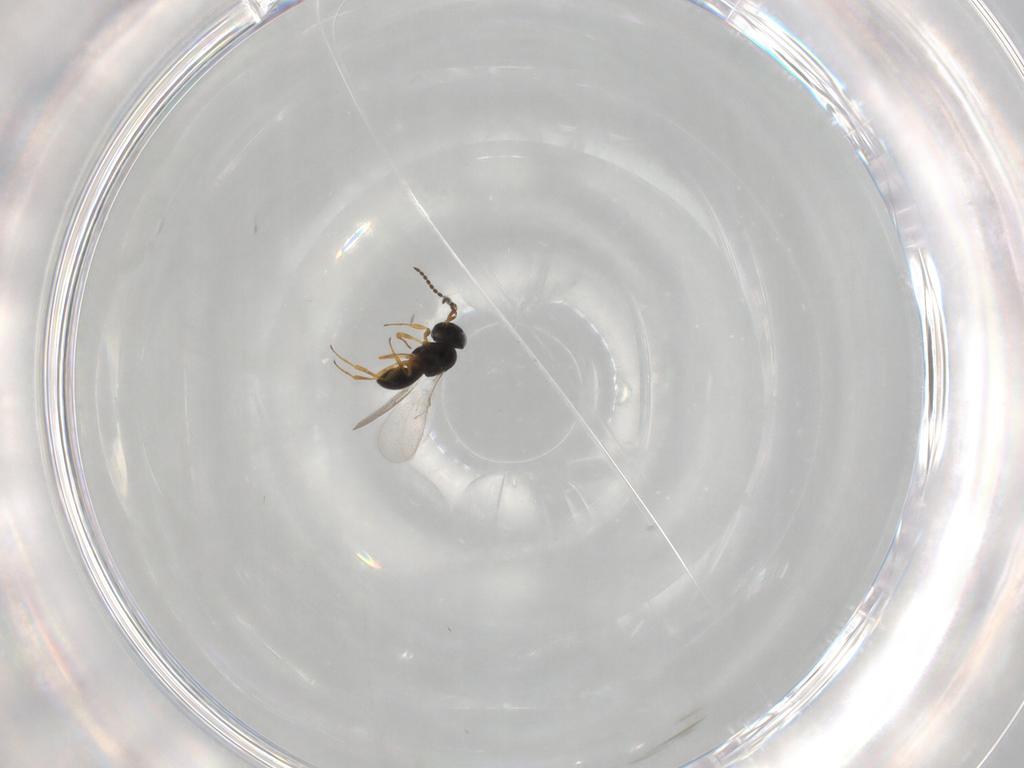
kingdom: Animalia
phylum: Arthropoda
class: Insecta
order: Hymenoptera
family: Scelionidae
